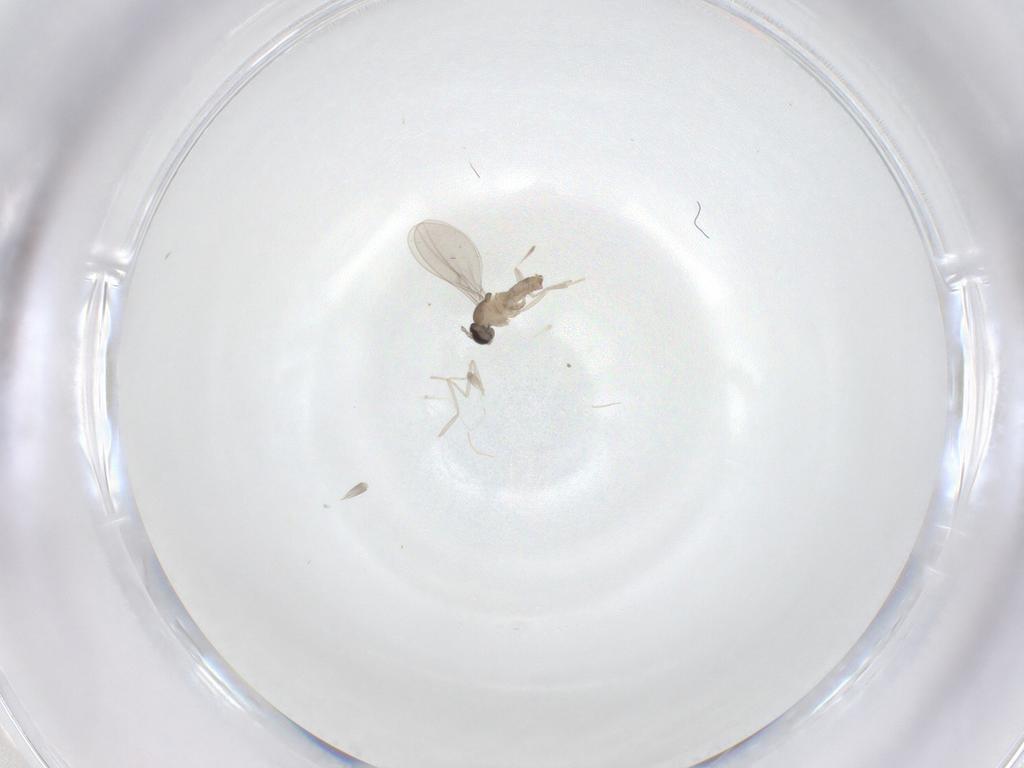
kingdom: Animalia
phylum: Arthropoda
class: Insecta
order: Diptera
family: Cecidomyiidae
